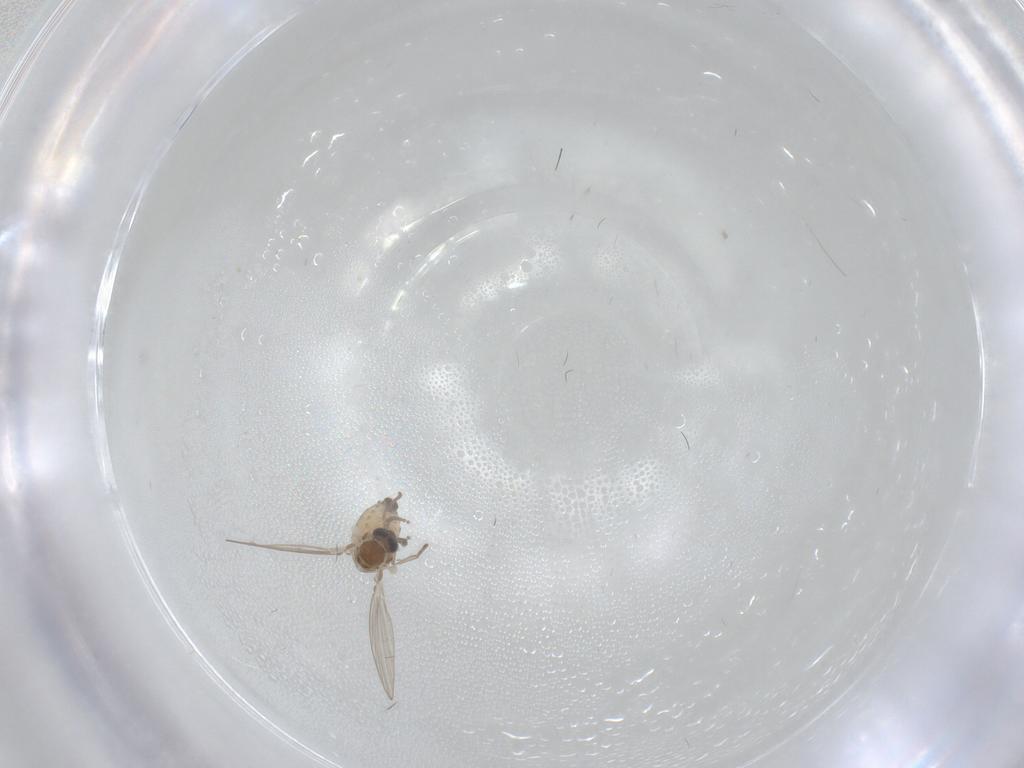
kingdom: Animalia
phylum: Arthropoda
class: Insecta
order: Diptera
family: Psychodidae
